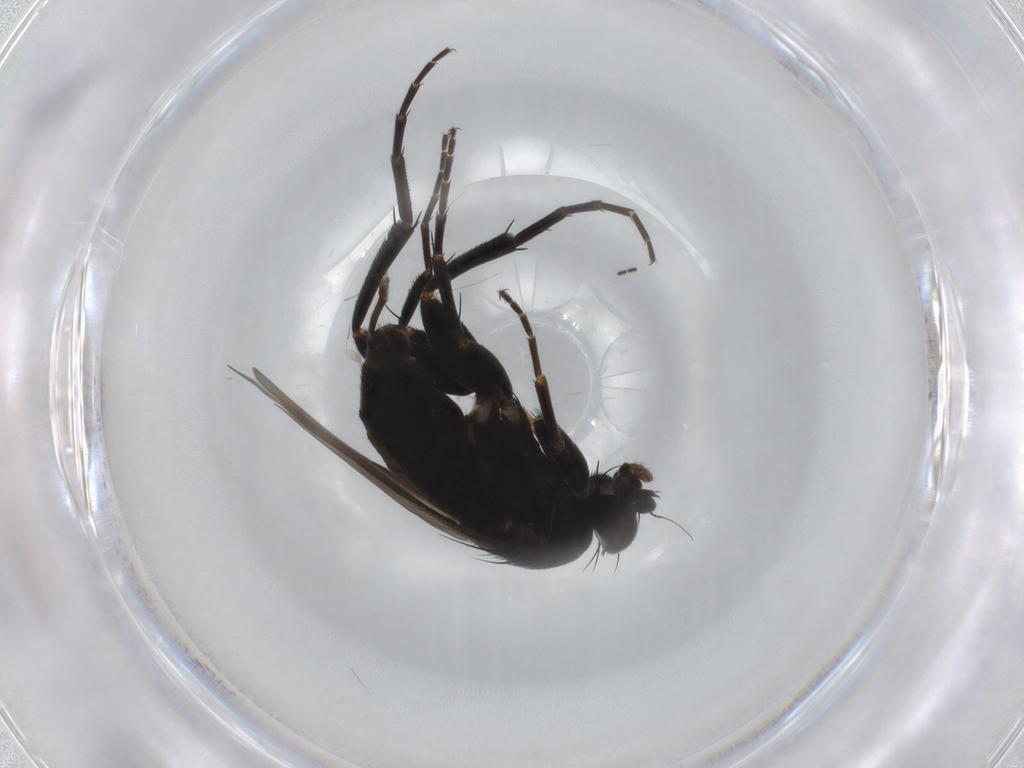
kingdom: Animalia
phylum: Arthropoda
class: Insecta
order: Diptera
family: Phoridae
